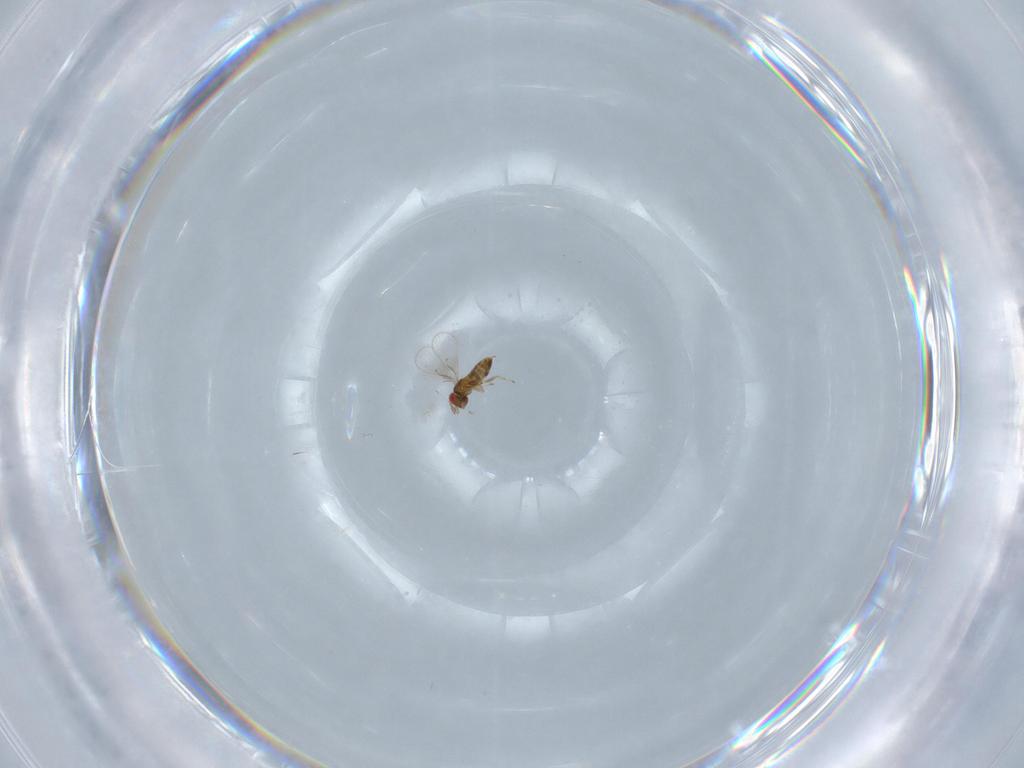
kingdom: Animalia
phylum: Arthropoda
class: Insecta
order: Hymenoptera
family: Trichogrammatidae
